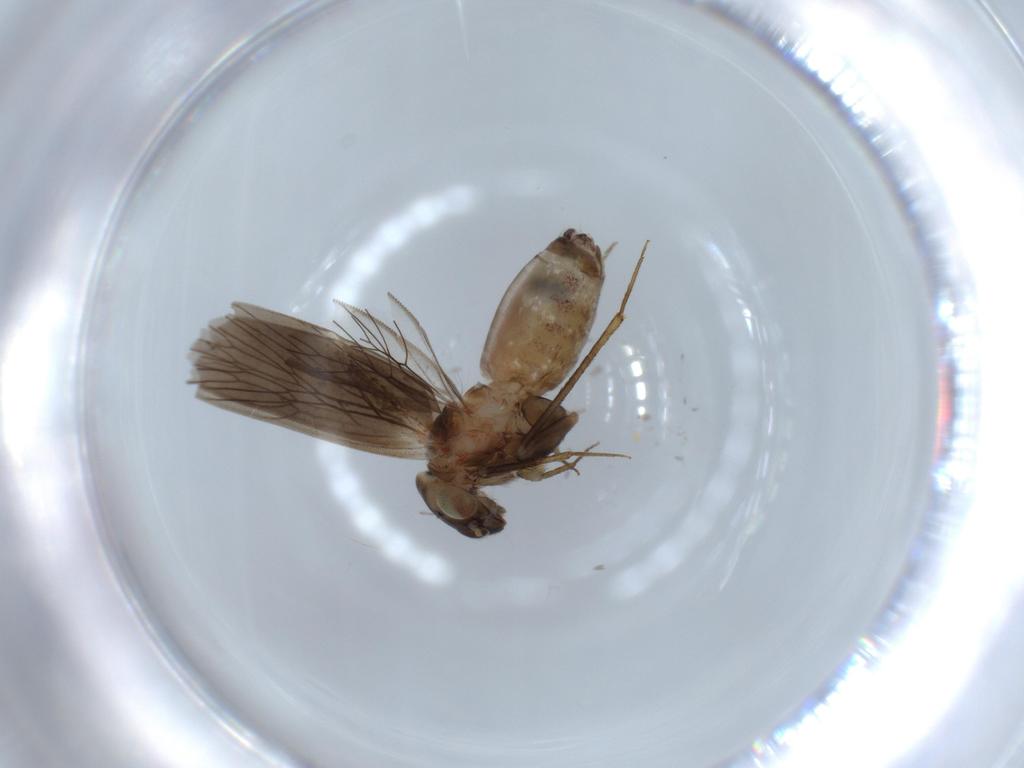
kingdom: Animalia
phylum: Arthropoda
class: Insecta
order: Psocodea
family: Lepidopsocidae
